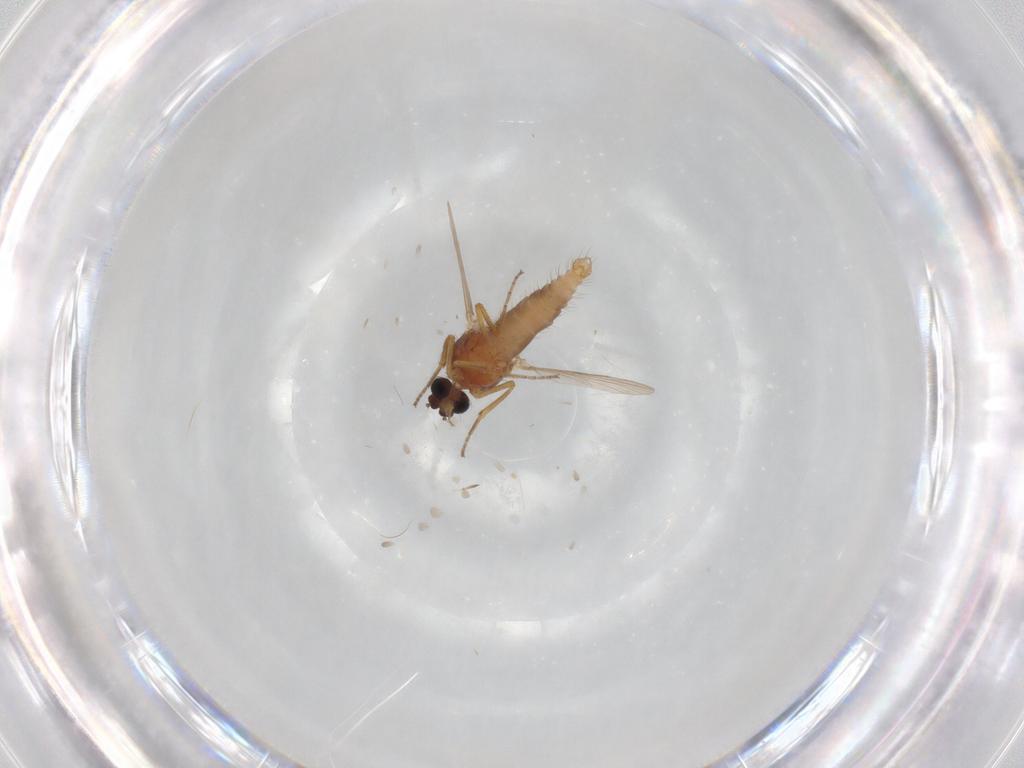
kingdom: Animalia
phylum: Arthropoda
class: Insecta
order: Diptera
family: Ceratopogonidae
